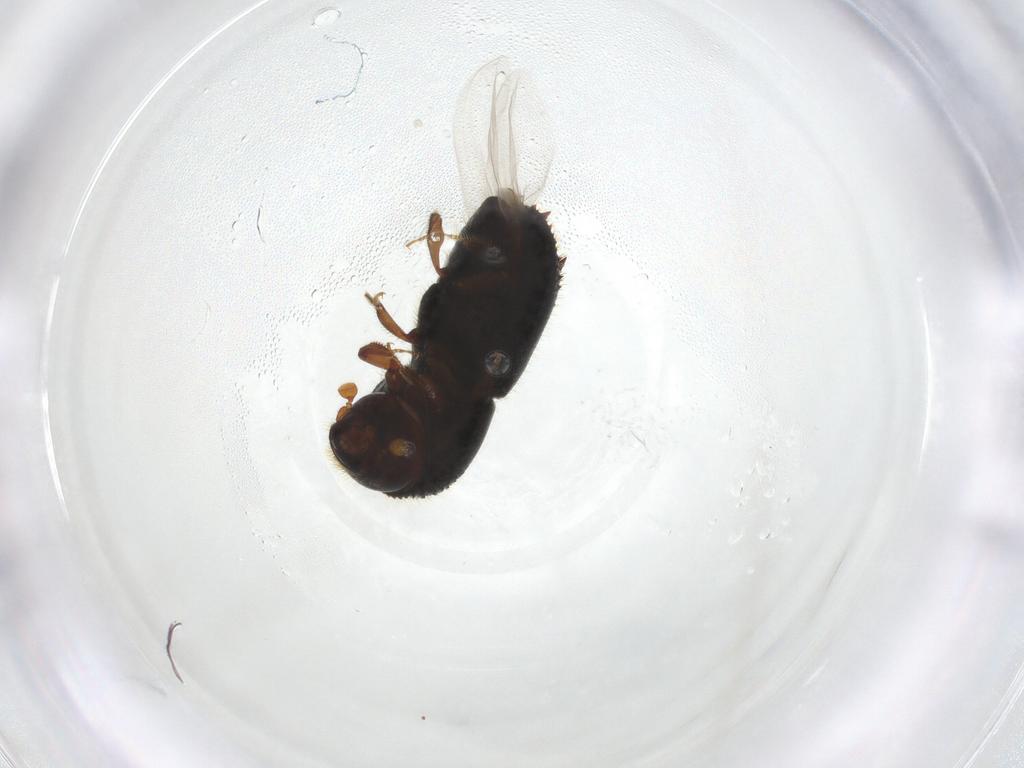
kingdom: Animalia
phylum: Arthropoda
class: Insecta
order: Coleoptera
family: Curculionidae
